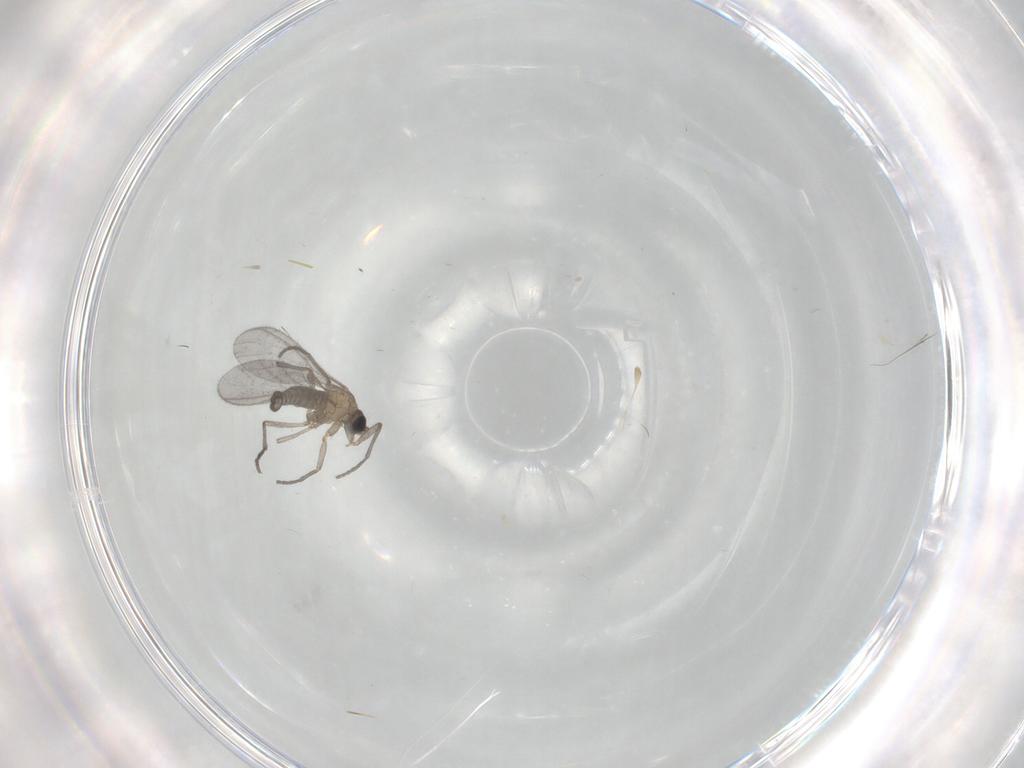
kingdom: Animalia
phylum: Arthropoda
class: Insecta
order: Diptera
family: Sciaridae
